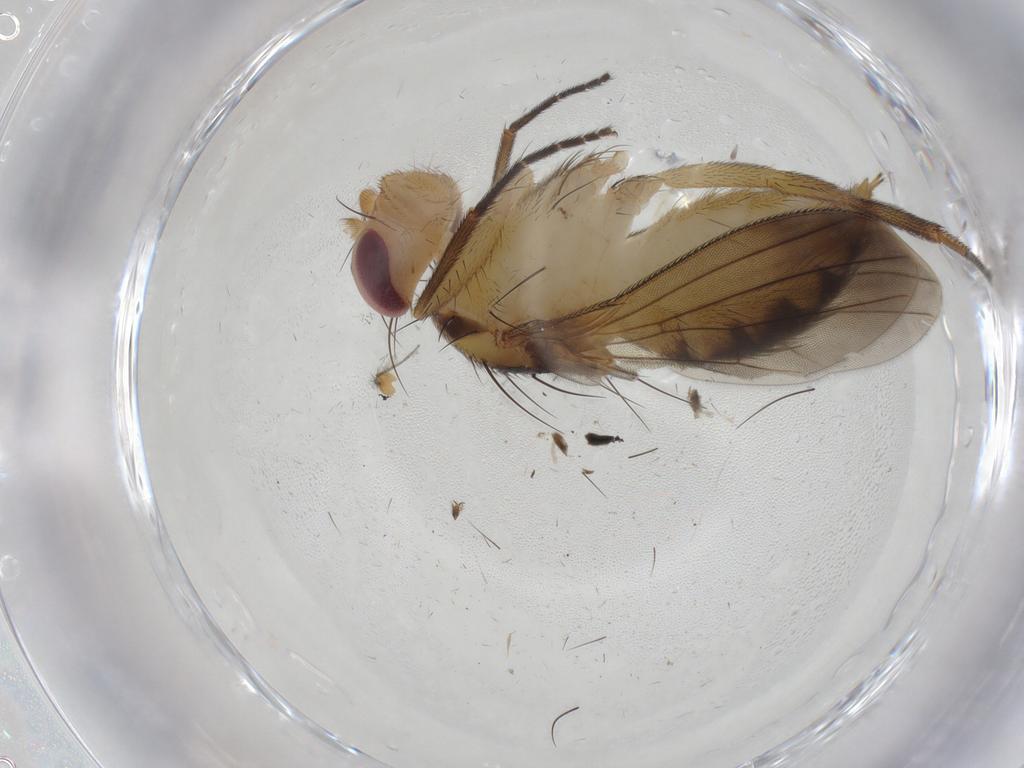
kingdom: Animalia
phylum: Arthropoda
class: Insecta
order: Diptera
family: Clusiidae
